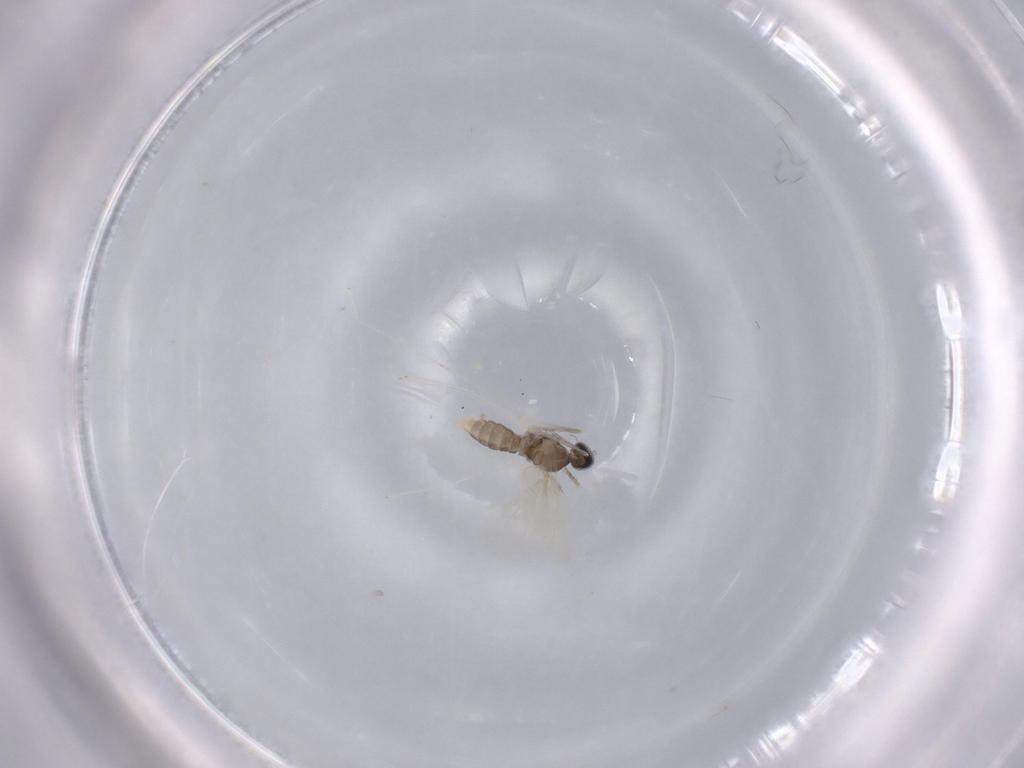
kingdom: Animalia
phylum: Arthropoda
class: Insecta
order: Diptera
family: Cecidomyiidae
